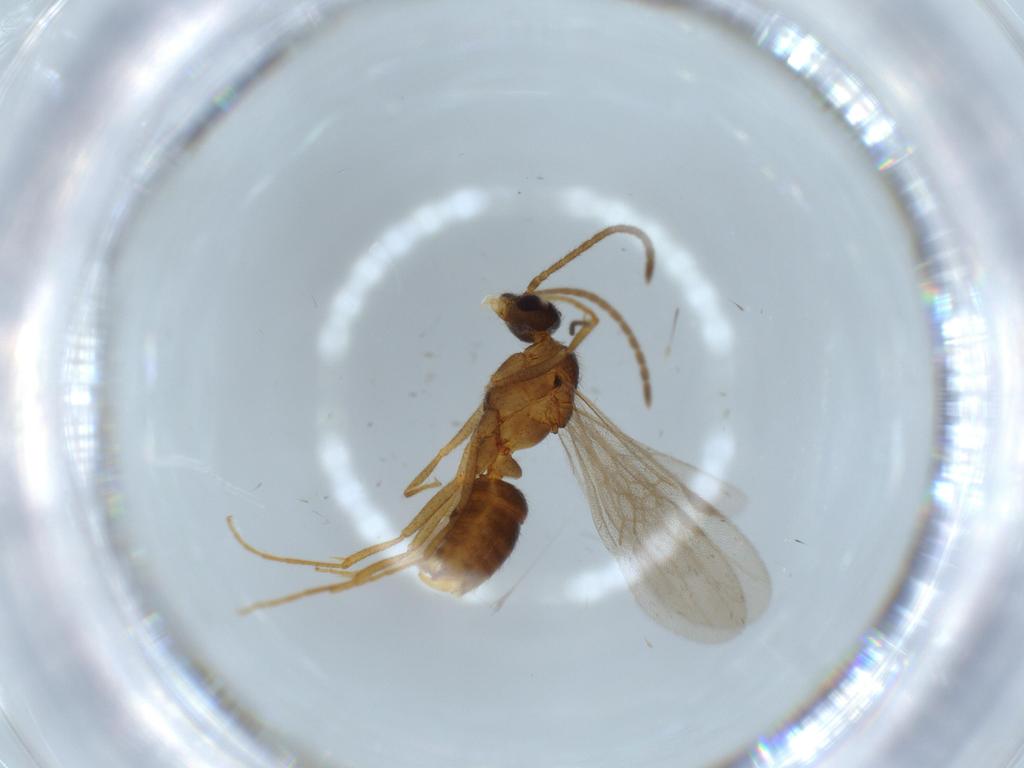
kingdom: Animalia
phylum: Arthropoda
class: Insecta
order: Hymenoptera
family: Formicidae
